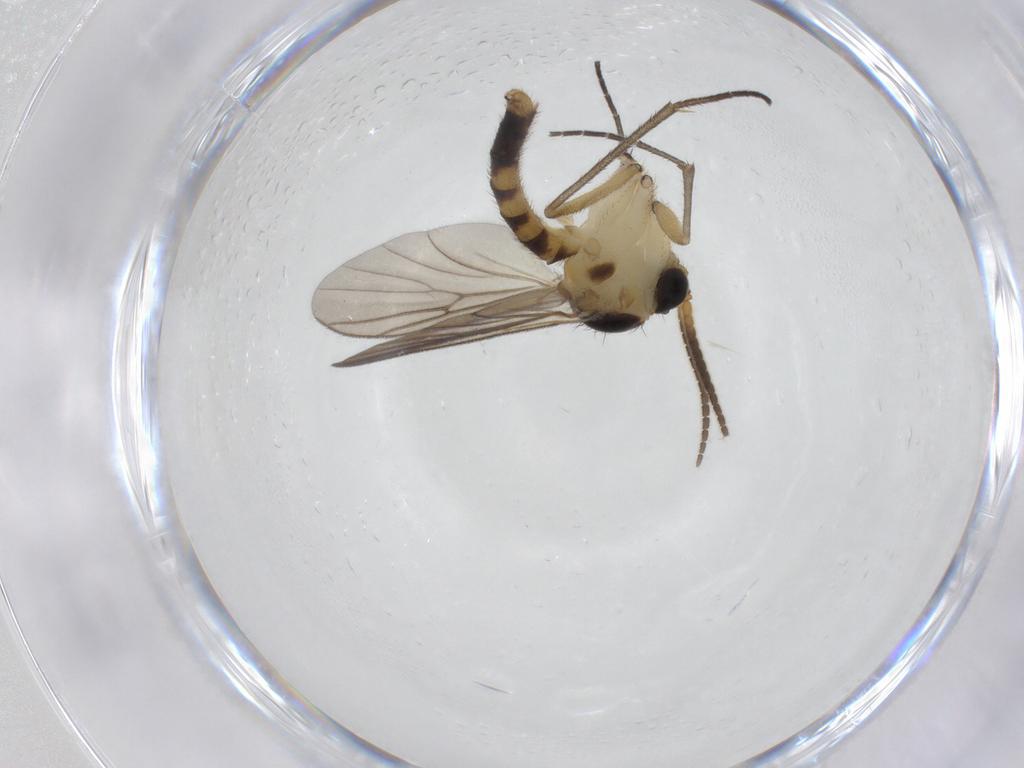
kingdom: Animalia
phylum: Arthropoda
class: Insecta
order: Diptera
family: Mycetophilidae
